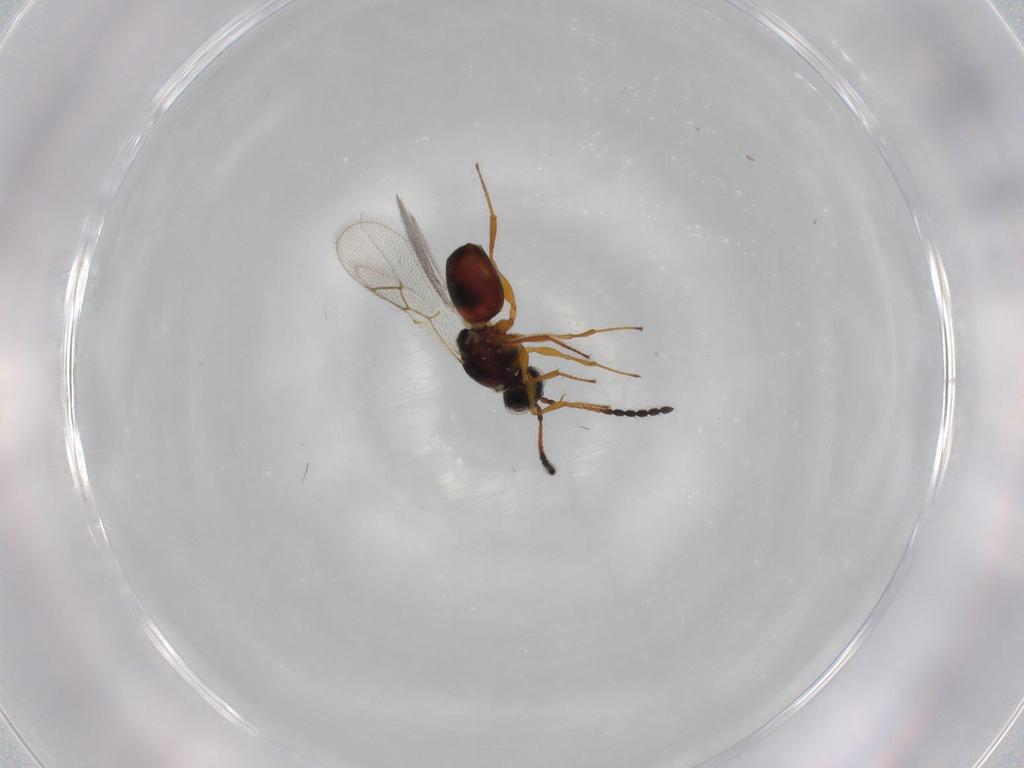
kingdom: Animalia
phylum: Arthropoda
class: Insecta
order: Hymenoptera
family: Figitidae
